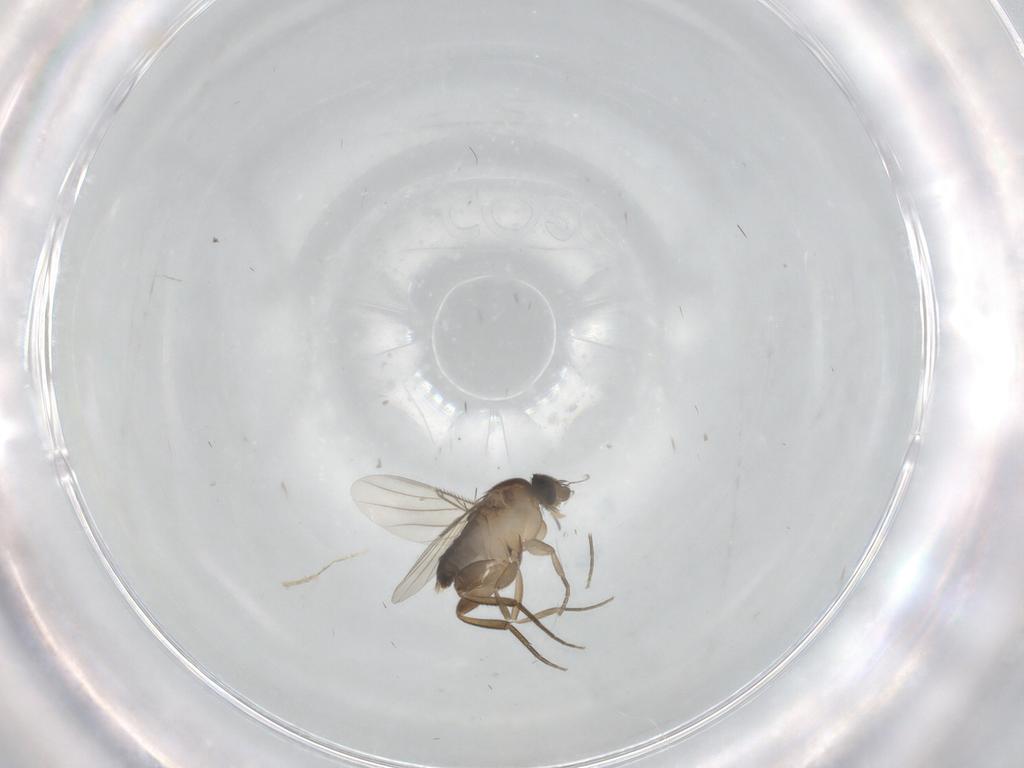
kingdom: Animalia
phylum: Arthropoda
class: Insecta
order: Diptera
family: Phoridae
